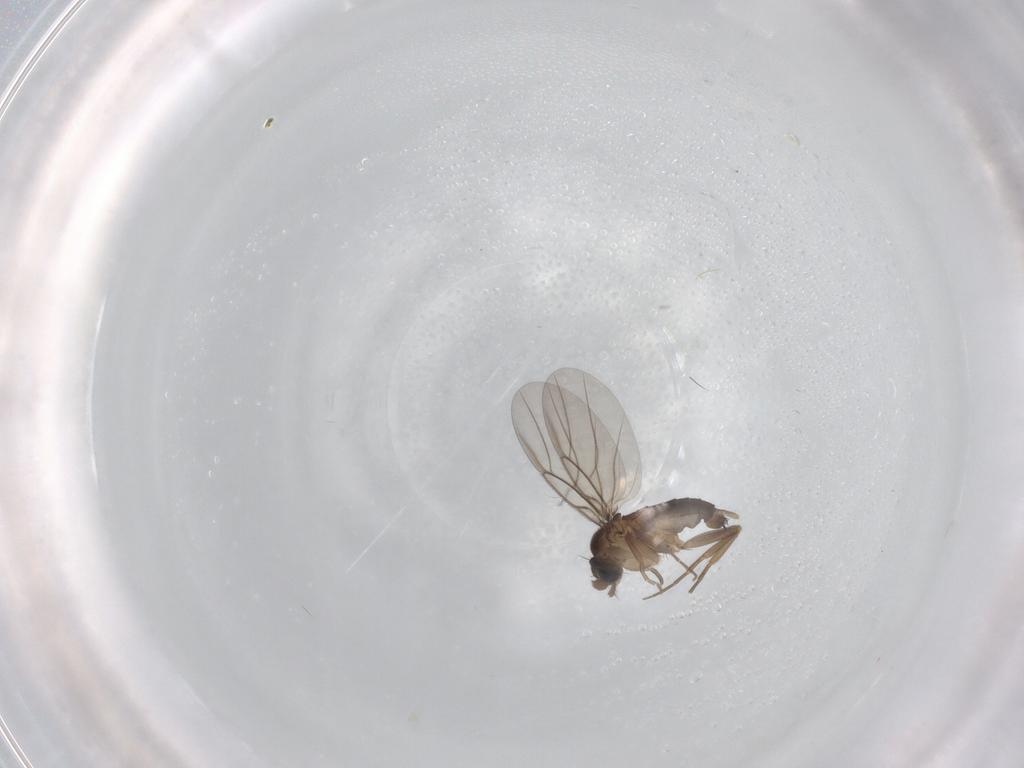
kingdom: Animalia
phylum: Arthropoda
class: Insecta
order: Diptera
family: Phoridae
